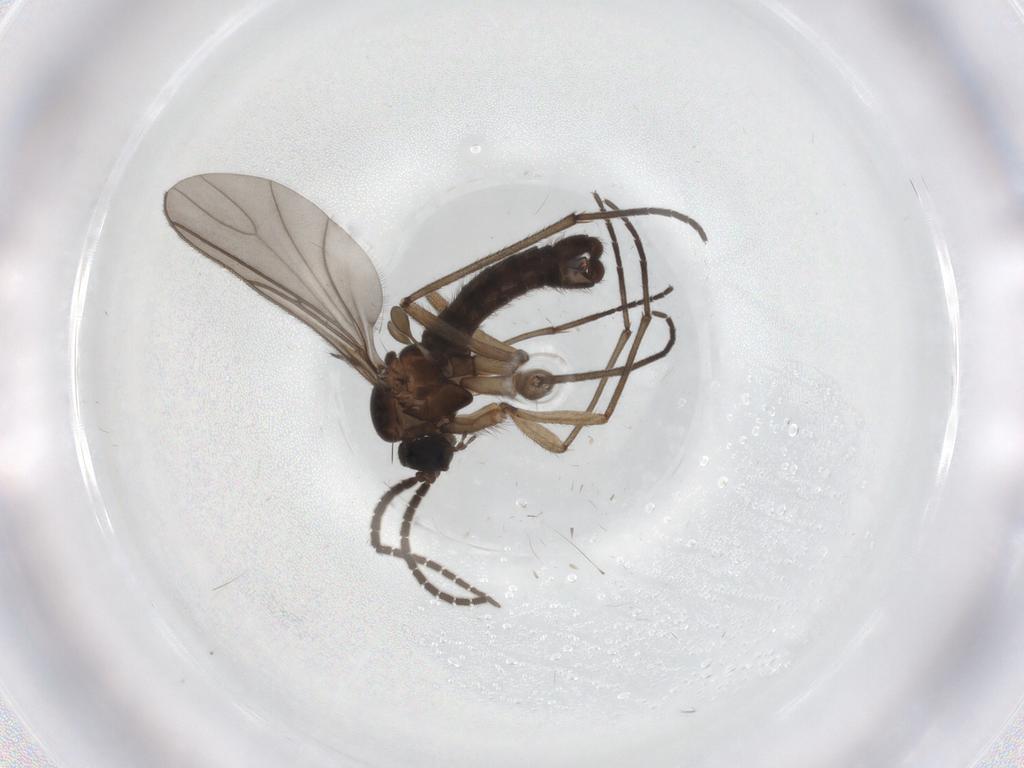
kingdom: Animalia
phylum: Arthropoda
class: Insecta
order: Diptera
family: Sciaridae
